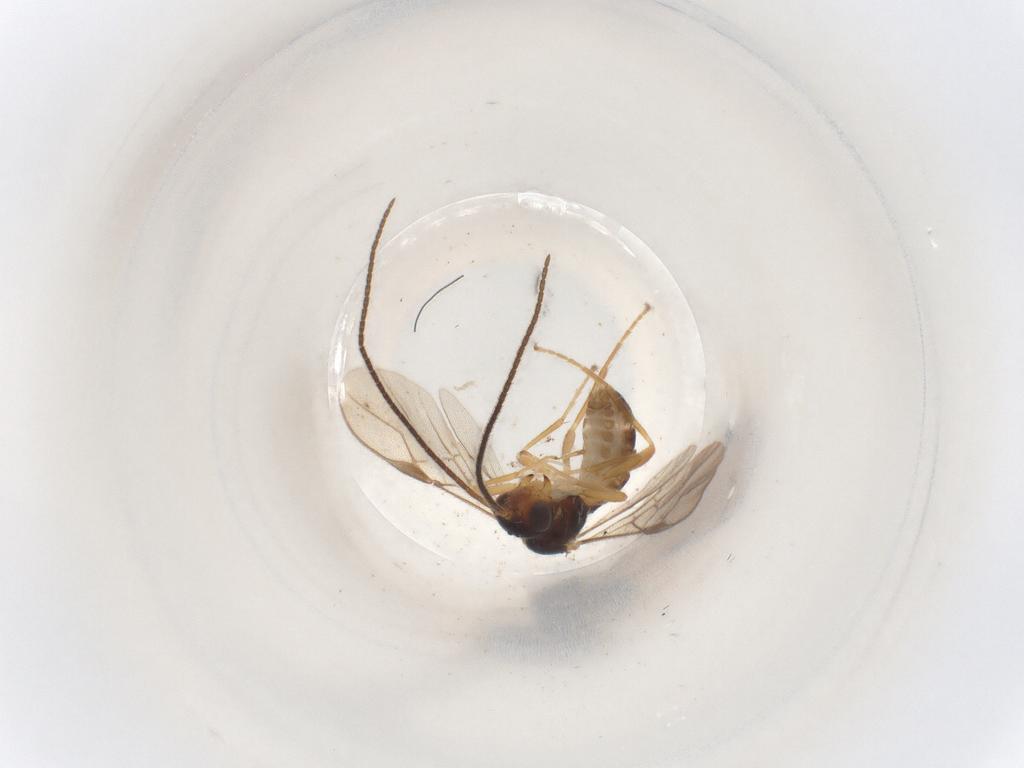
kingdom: Animalia
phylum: Arthropoda
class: Insecta
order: Hymenoptera
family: Braconidae
